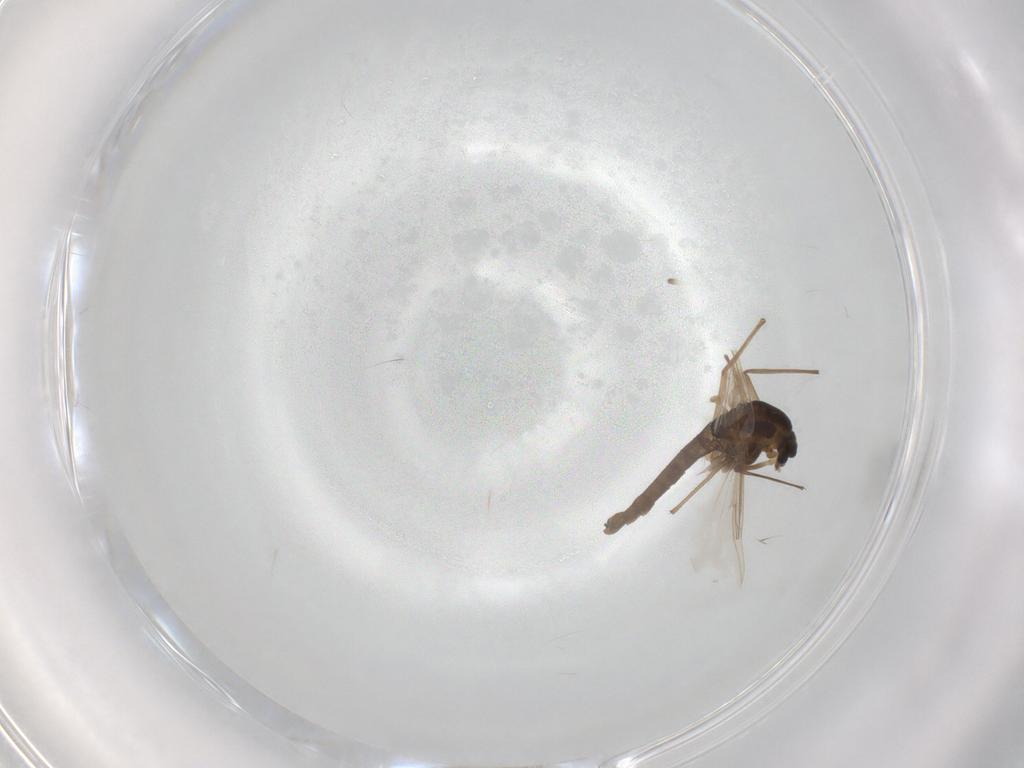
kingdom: Animalia
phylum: Arthropoda
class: Insecta
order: Diptera
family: Chironomidae
